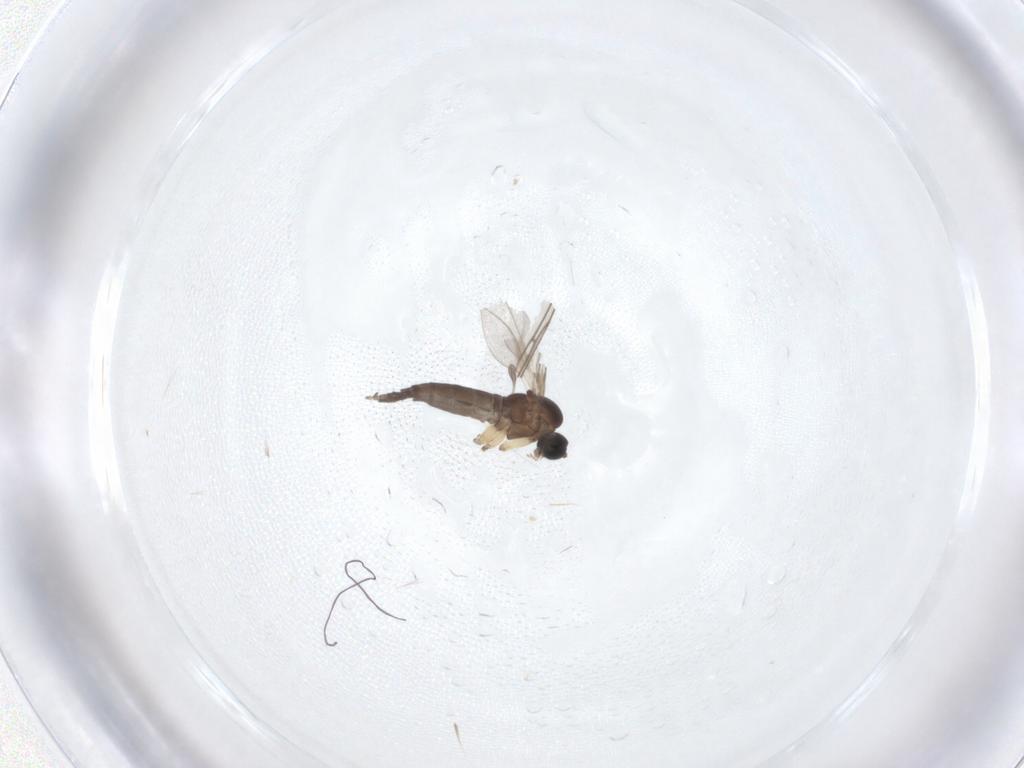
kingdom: Animalia
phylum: Arthropoda
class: Insecta
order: Diptera
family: Sciaridae
